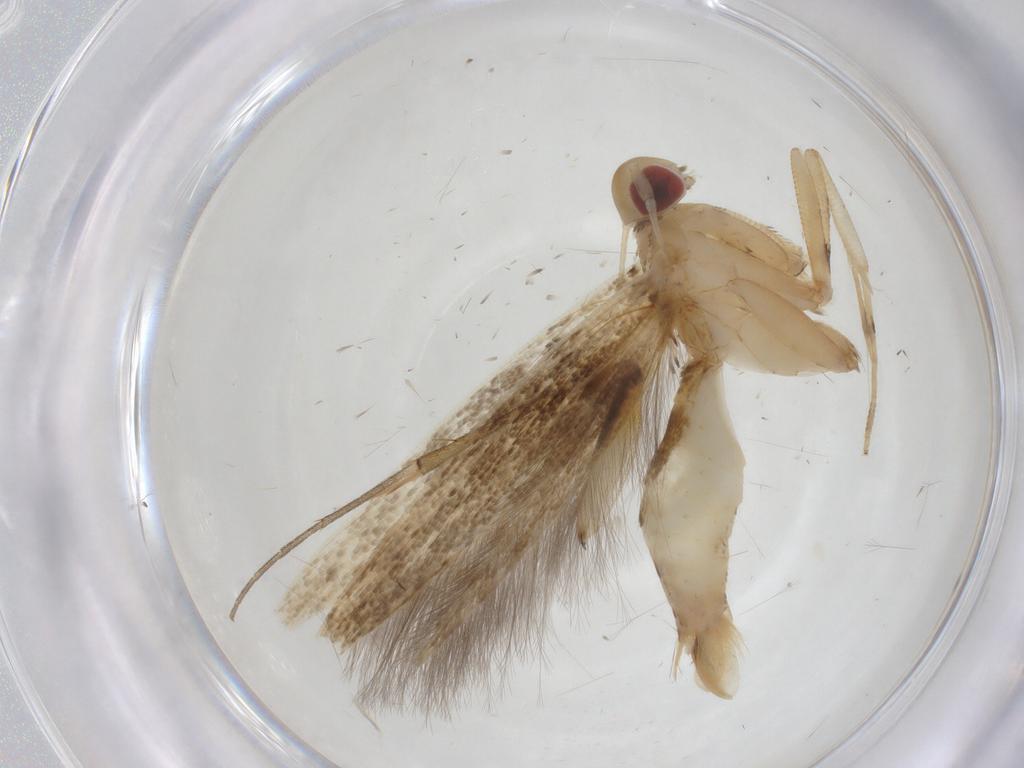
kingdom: Animalia
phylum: Arthropoda
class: Insecta
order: Lepidoptera
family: Cosmopterigidae
